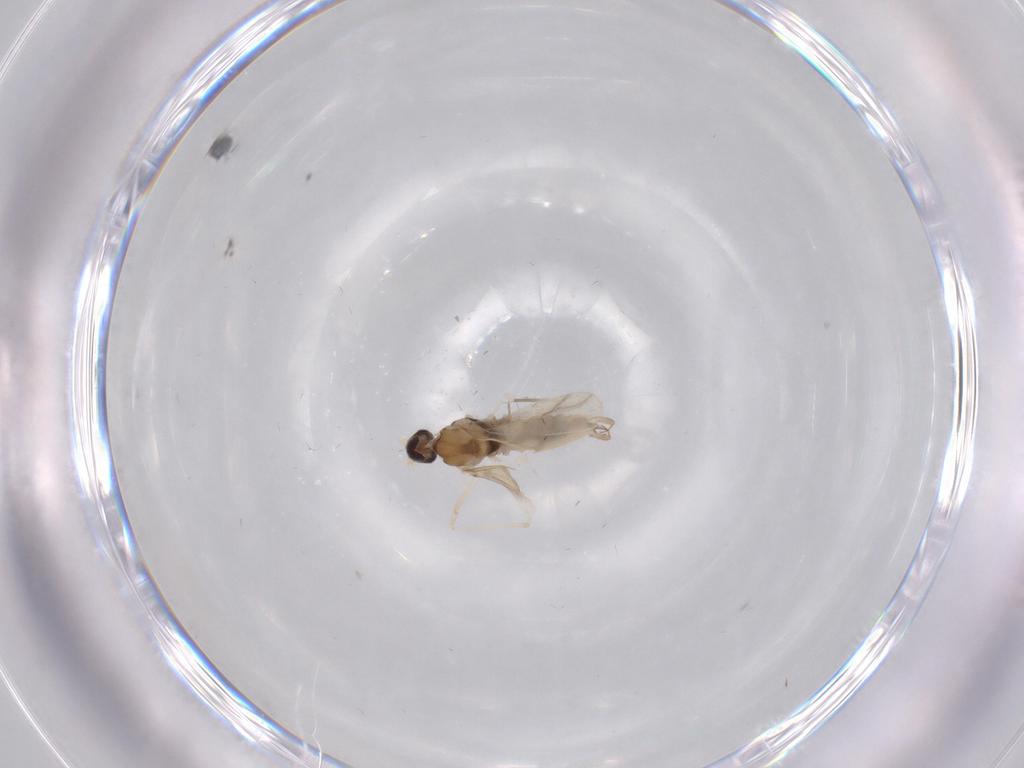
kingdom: Animalia
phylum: Arthropoda
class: Insecta
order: Diptera
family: Cecidomyiidae
